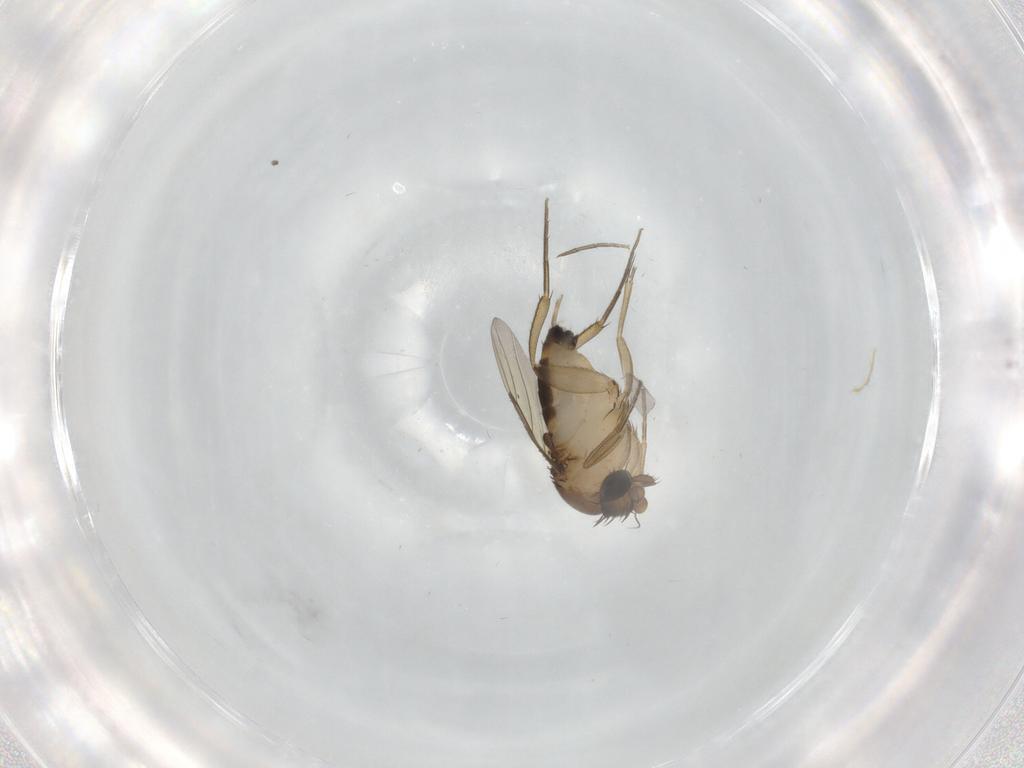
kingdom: Animalia
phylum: Arthropoda
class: Insecta
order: Diptera
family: Phoridae
